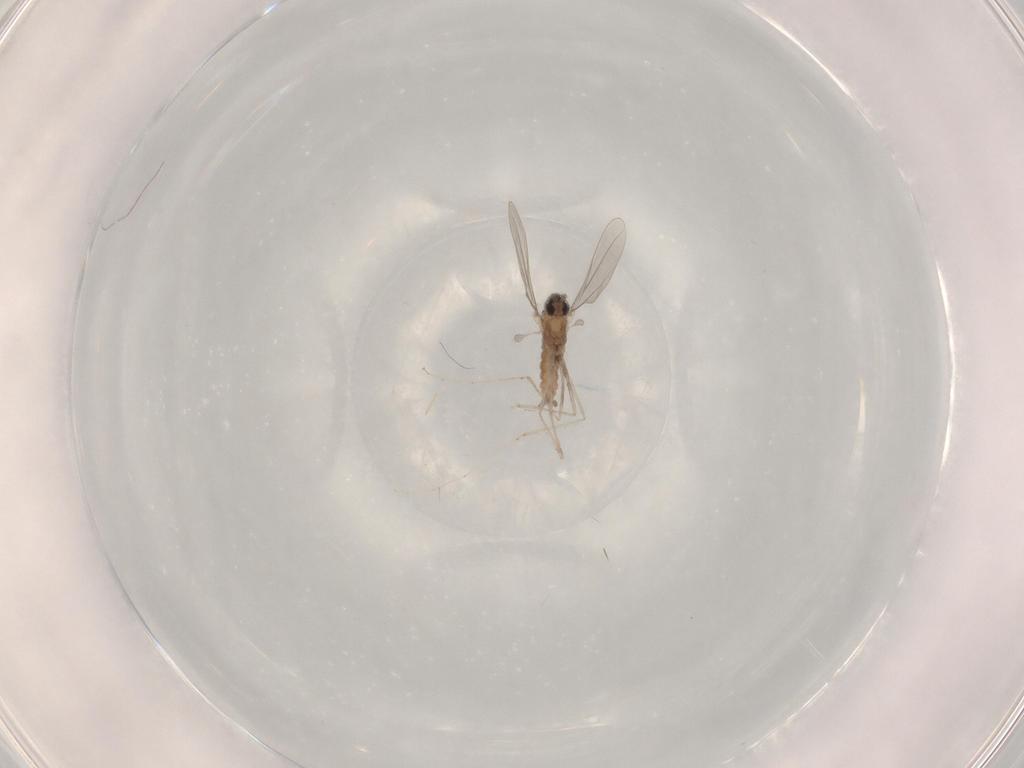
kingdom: Animalia
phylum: Arthropoda
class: Insecta
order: Diptera
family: Cecidomyiidae
